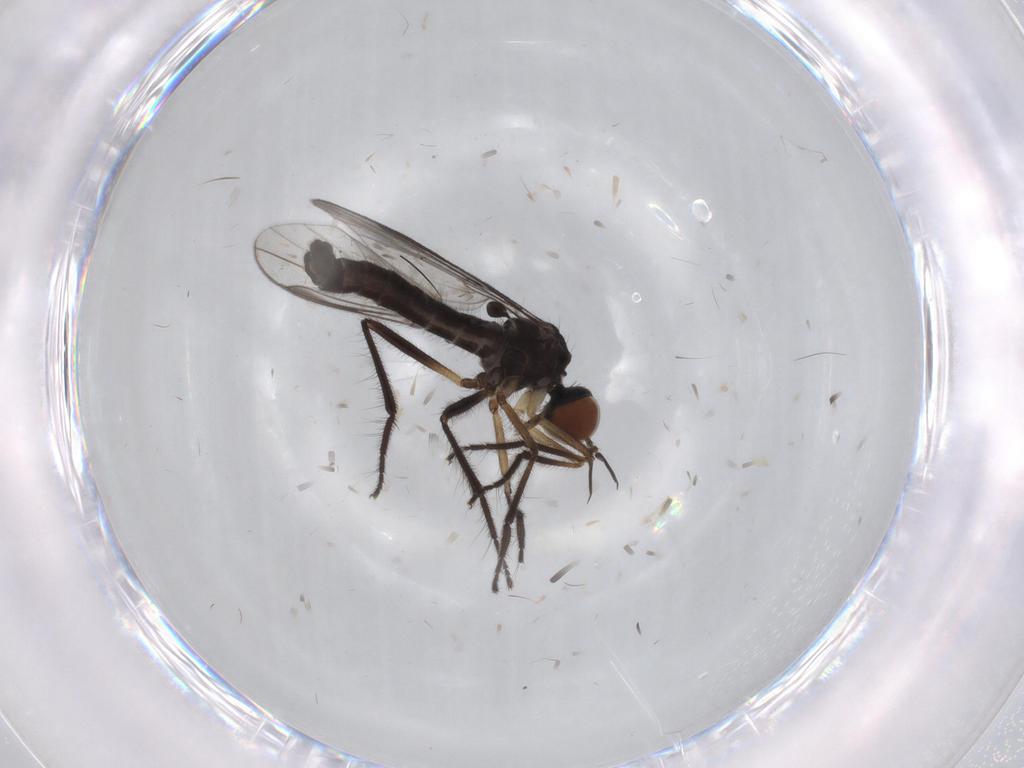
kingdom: Animalia
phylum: Arthropoda
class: Insecta
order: Diptera
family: Empididae
